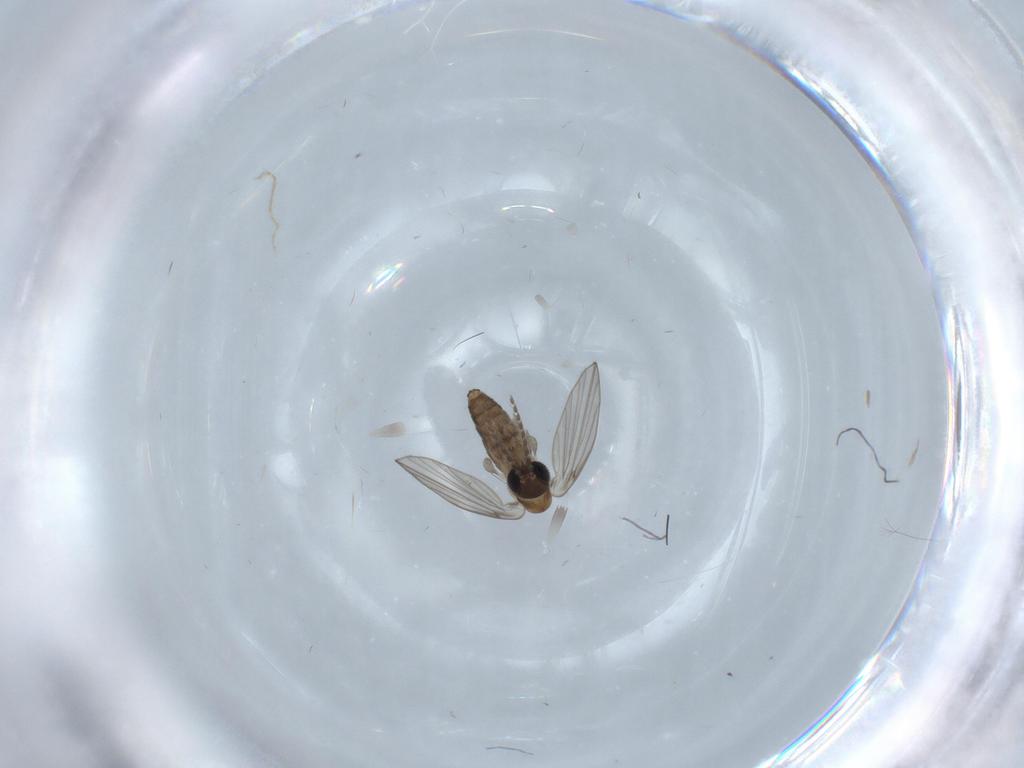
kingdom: Animalia
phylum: Arthropoda
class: Insecta
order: Diptera
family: Psychodidae
